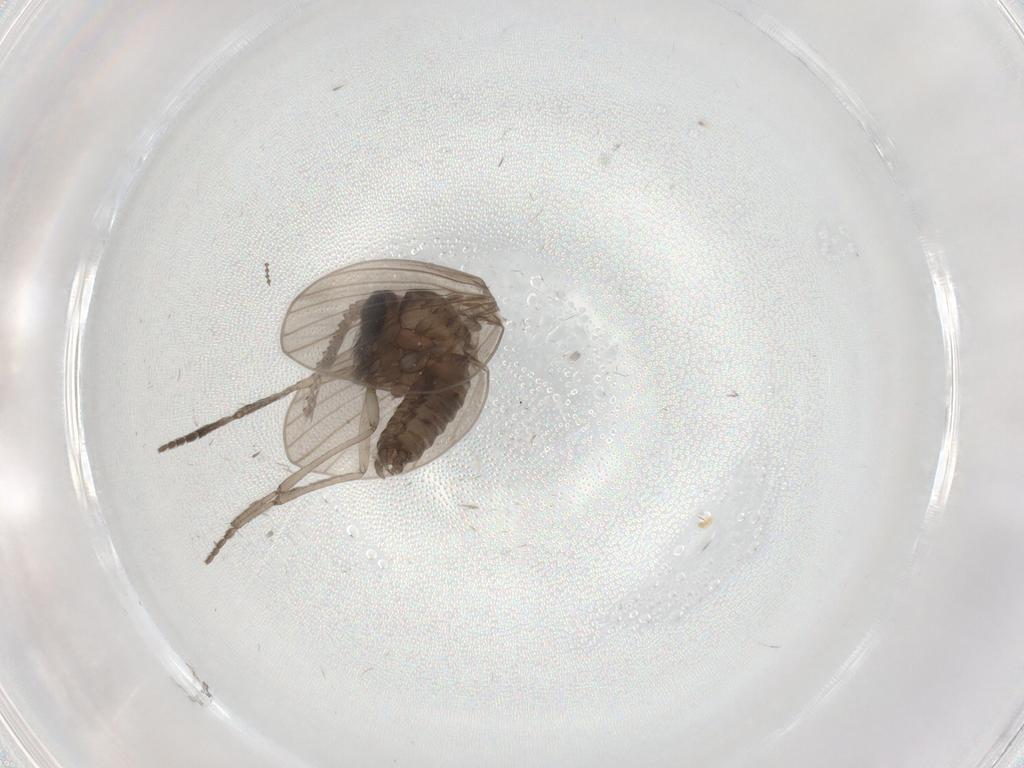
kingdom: Animalia
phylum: Arthropoda
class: Insecta
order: Diptera
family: Psychodidae
